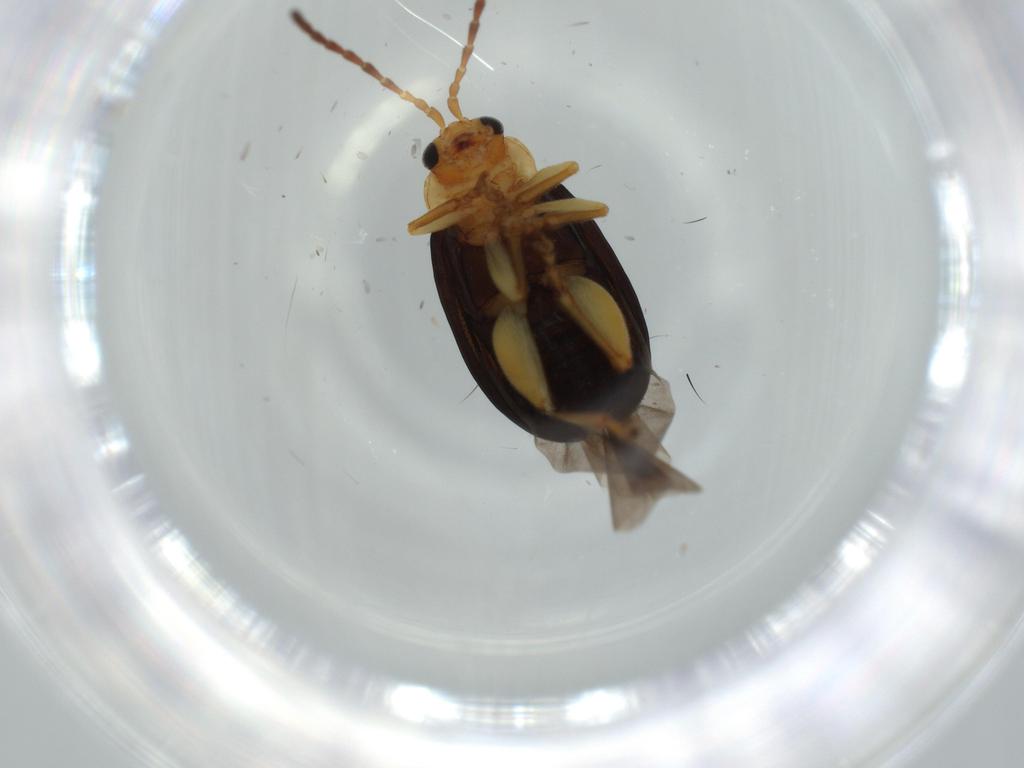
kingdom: Animalia
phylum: Arthropoda
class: Insecta
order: Coleoptera
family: Chrysomelidae
